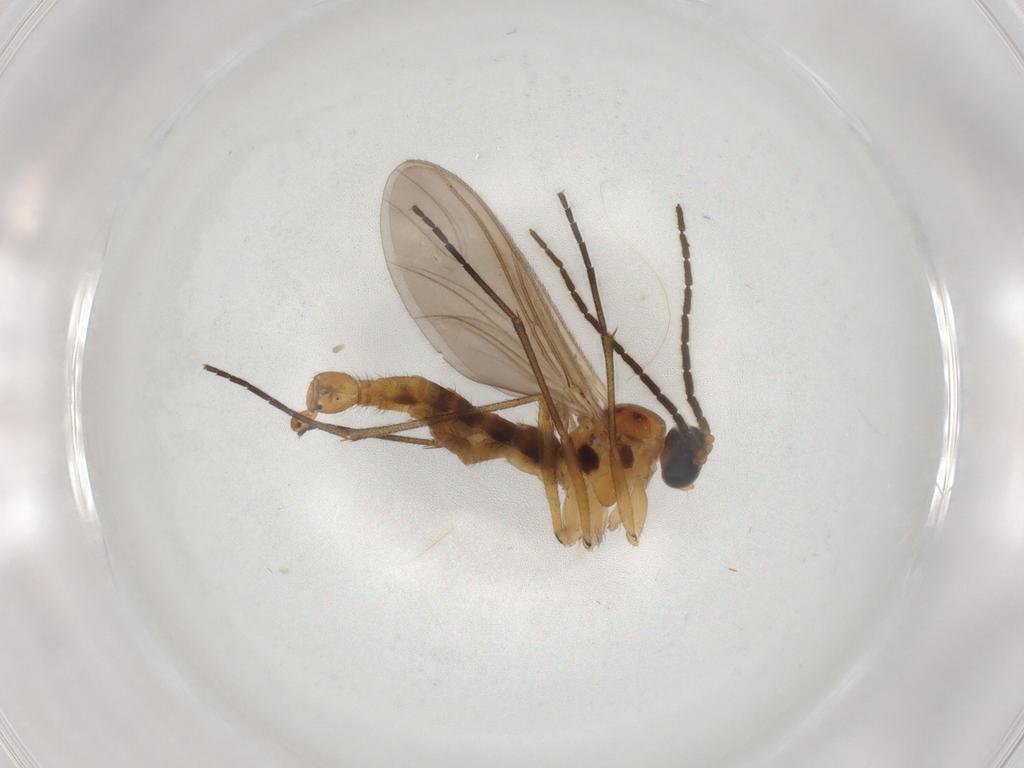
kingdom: Animalia
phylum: Arthropoda
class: Insecta
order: Diptera
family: Sciaridae
